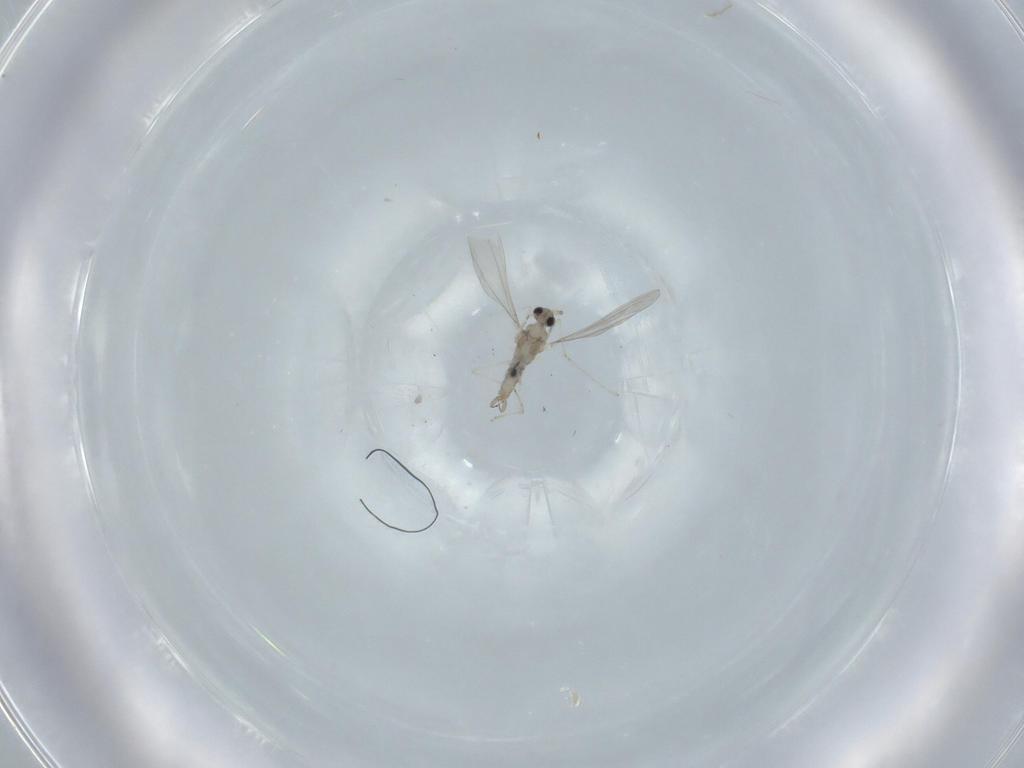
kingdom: Animalia
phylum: Arthropoda
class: Insecta
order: Diptera
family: Cecidomyiidae
